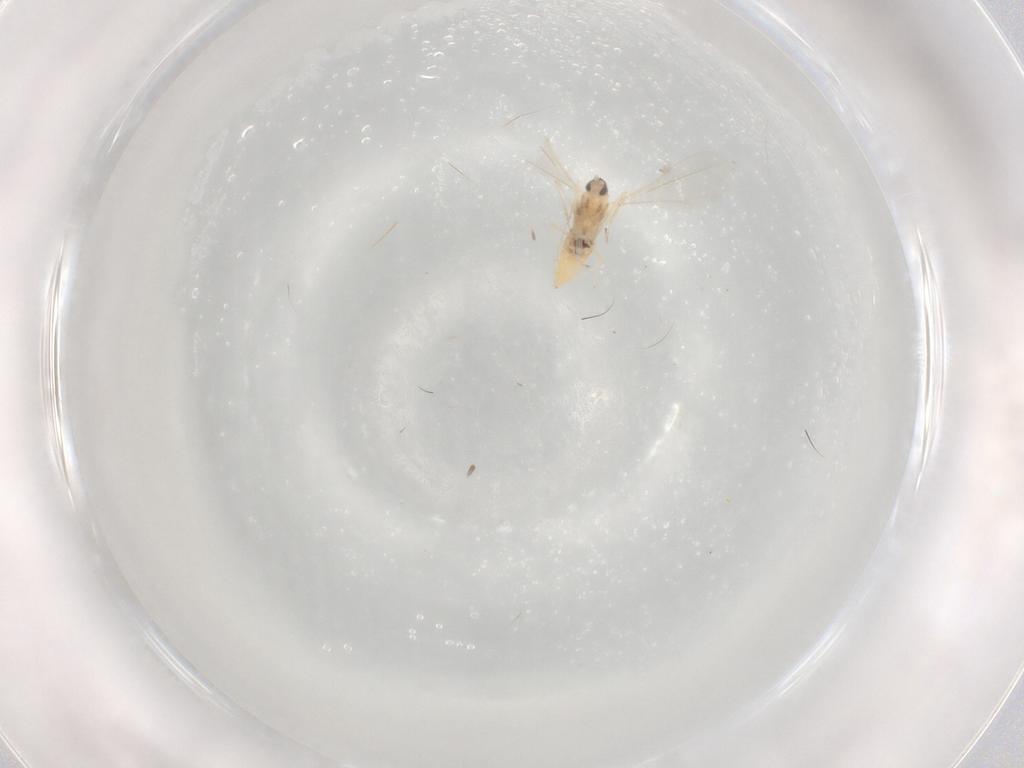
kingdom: Animalia
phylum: Arthropoda
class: Insecta
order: Diptera
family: Cecidomyiidae
